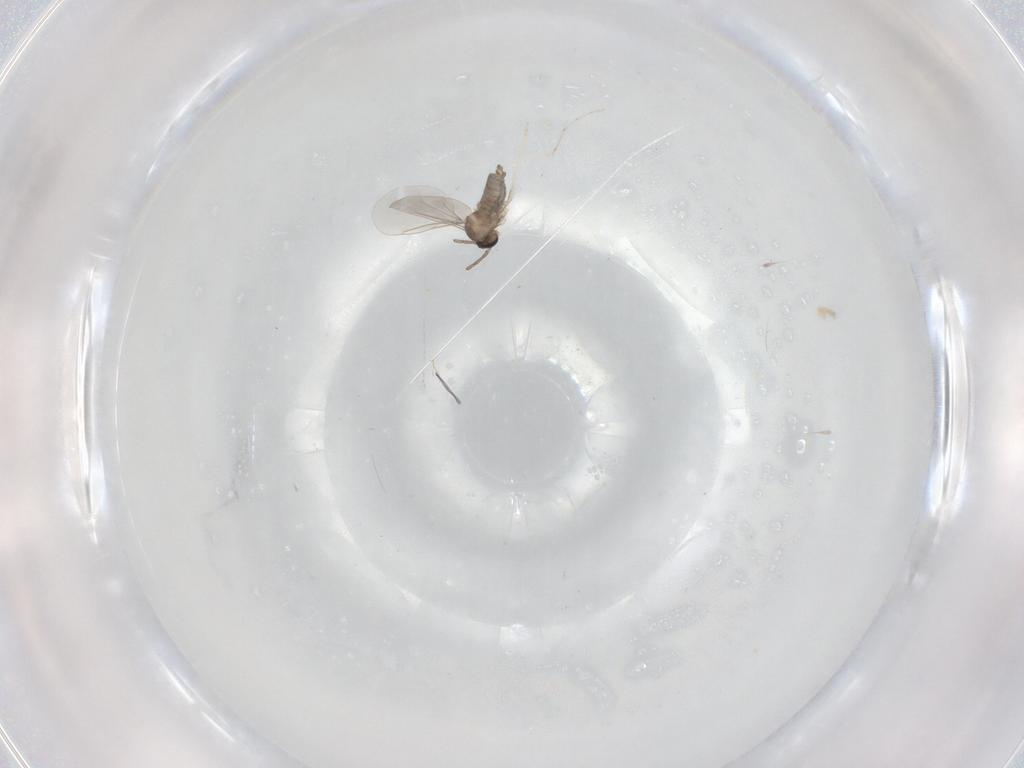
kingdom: Animalia
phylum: Arthropoda
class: Insecta
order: Diptera
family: Cecidomyiidae
